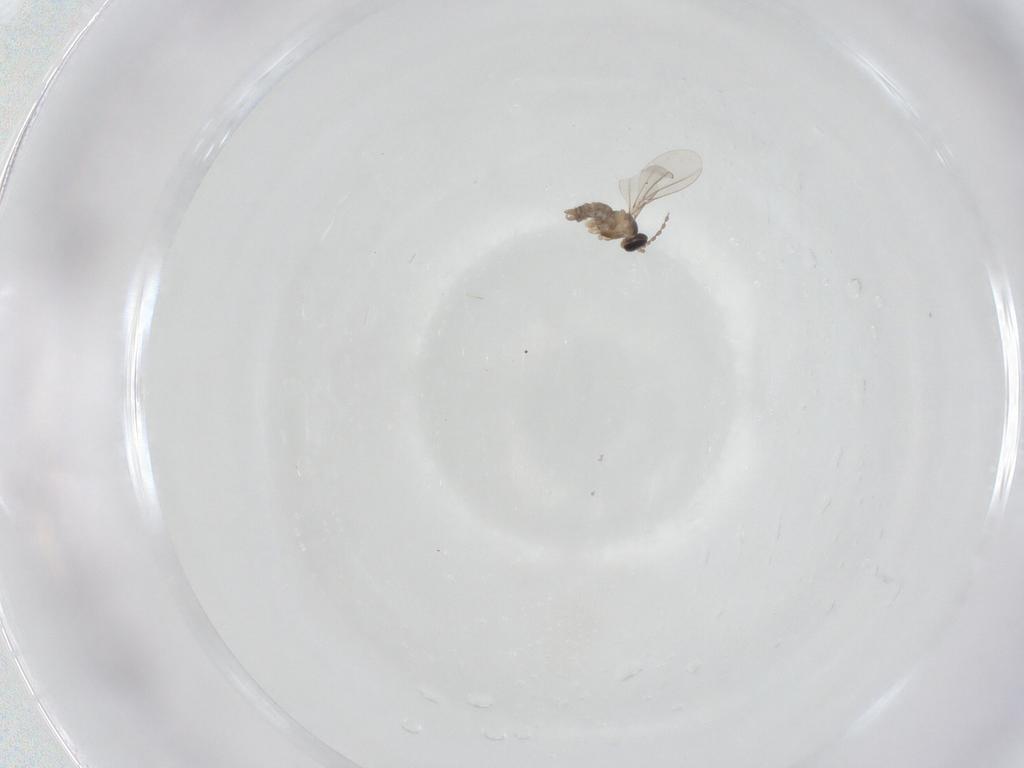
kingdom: Animalia
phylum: Arthropoda
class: Insecta
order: Diptera
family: Cecidomyiidae
